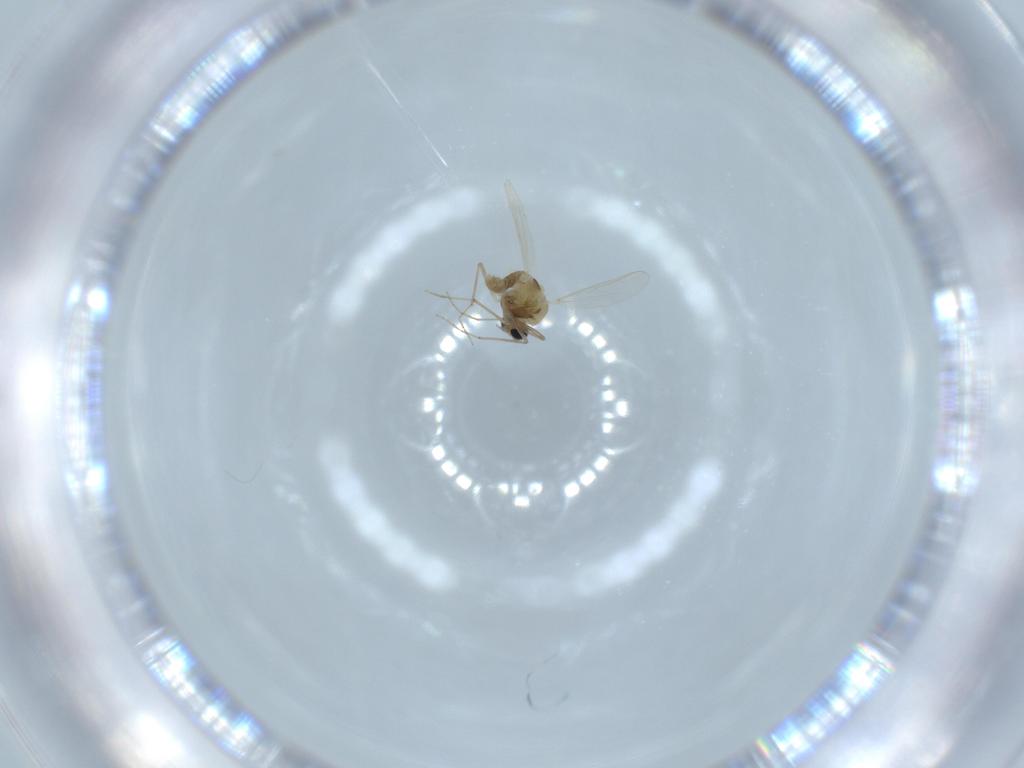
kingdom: Animalia
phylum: Arthropoda
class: Insecta
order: Diptera
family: Chironomidae
